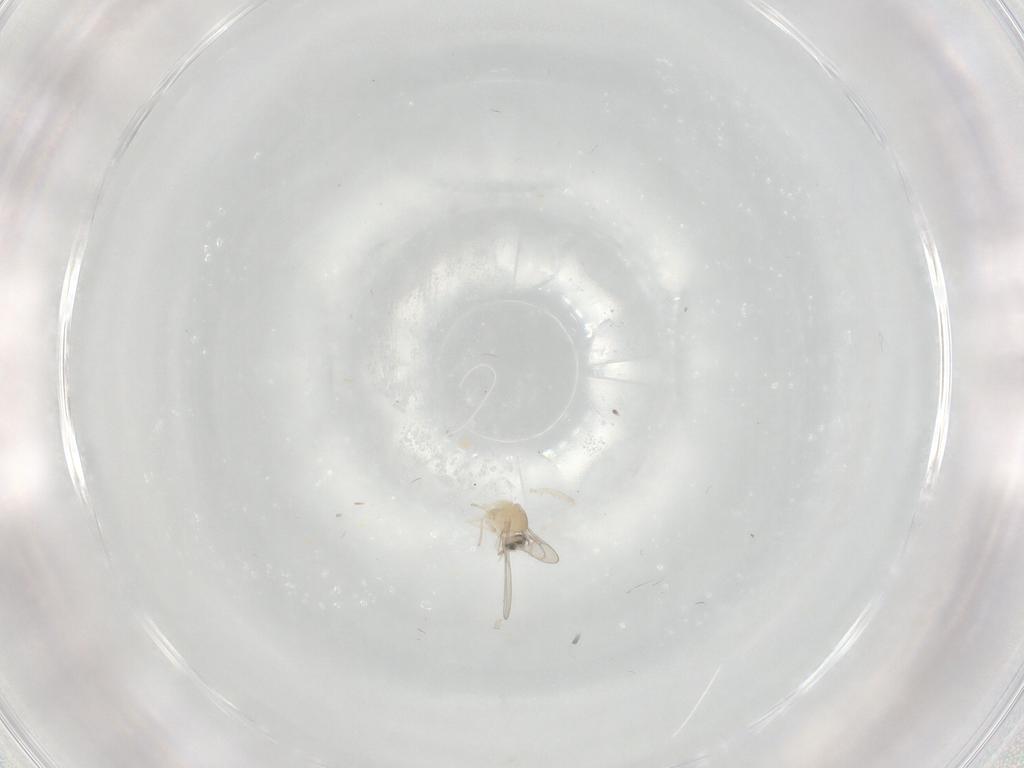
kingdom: Animalia
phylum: Arthropoda
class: Insecta
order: Diptera
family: Chironomidae
